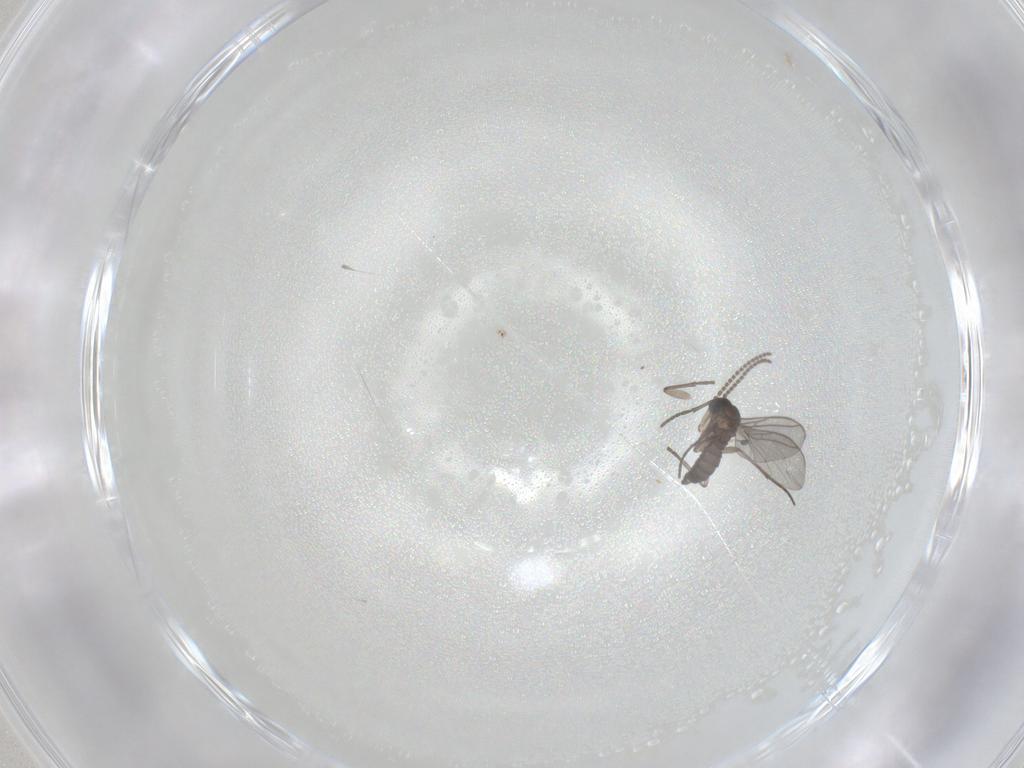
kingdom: Animalia
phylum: Arthropoda
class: Insecta
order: Diptera
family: Sciaridae
